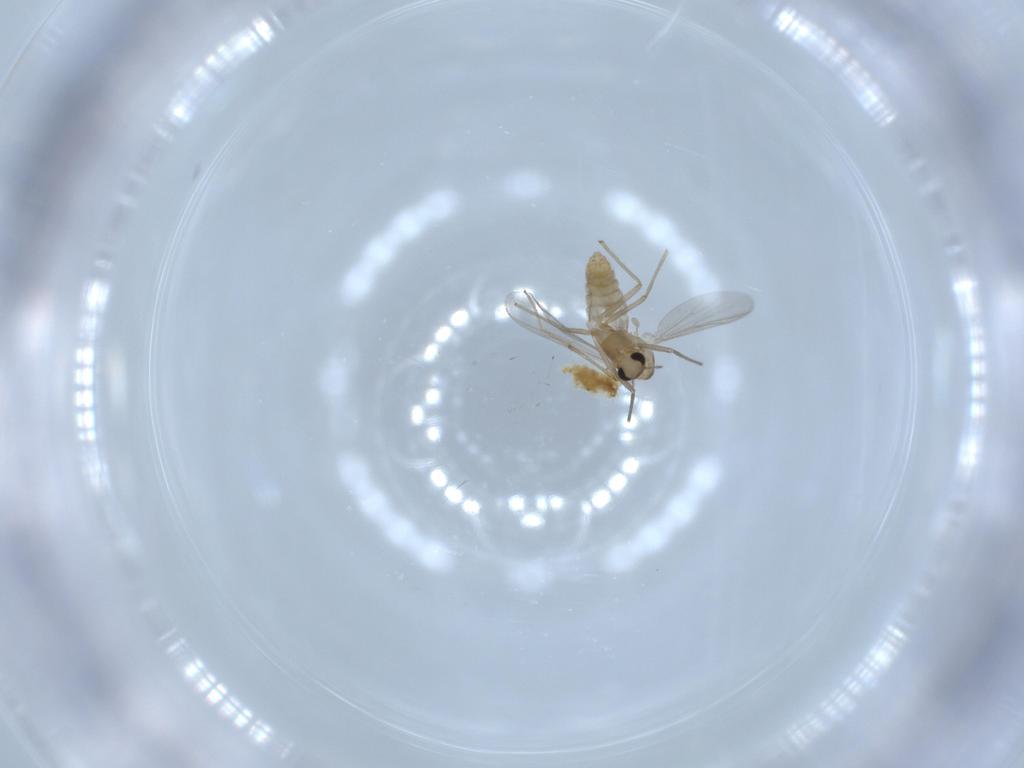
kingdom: Animalia
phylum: Arthropoda
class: Insecta
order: Diptera
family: Chironomidae
